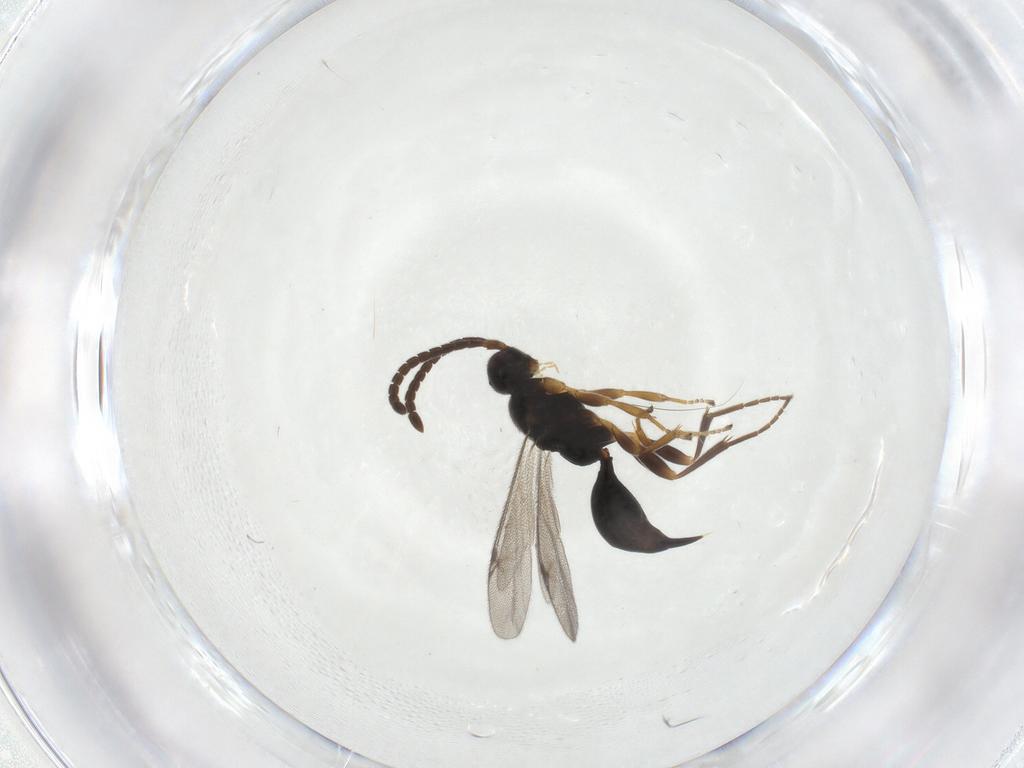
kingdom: Animalia
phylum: Arthropoda
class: Insecta
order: Hymenoptera
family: Proctotrupidae
